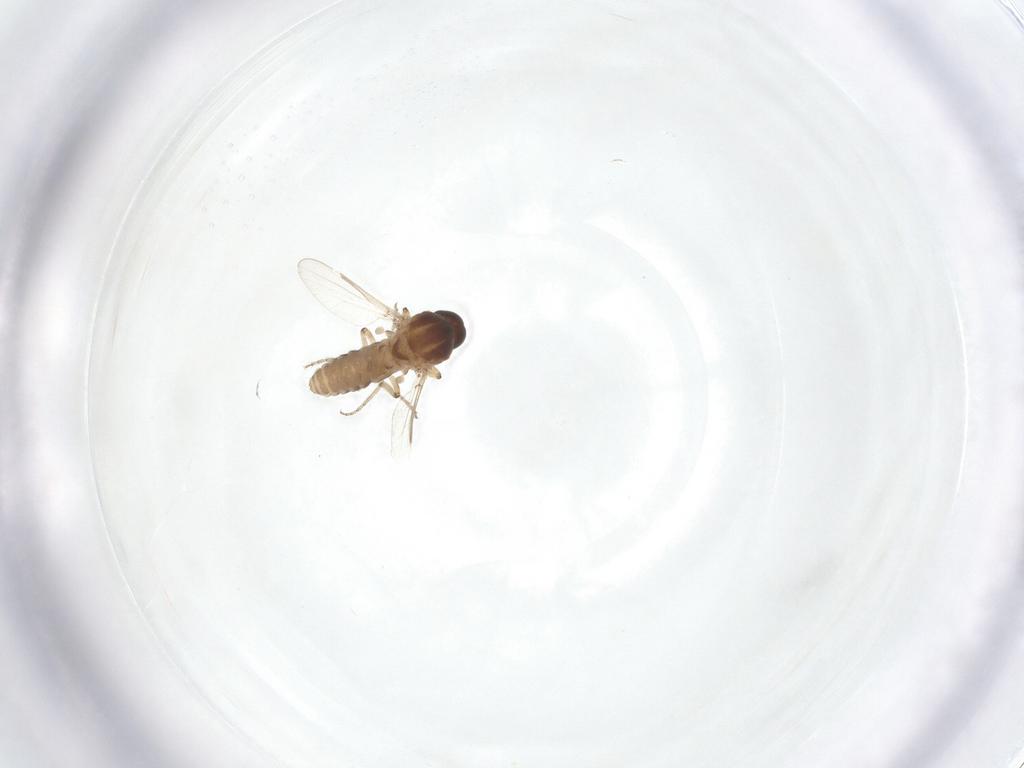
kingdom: Animalia
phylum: Arthropoda
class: Insecta
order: Diptera
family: Ceratopogonidae
